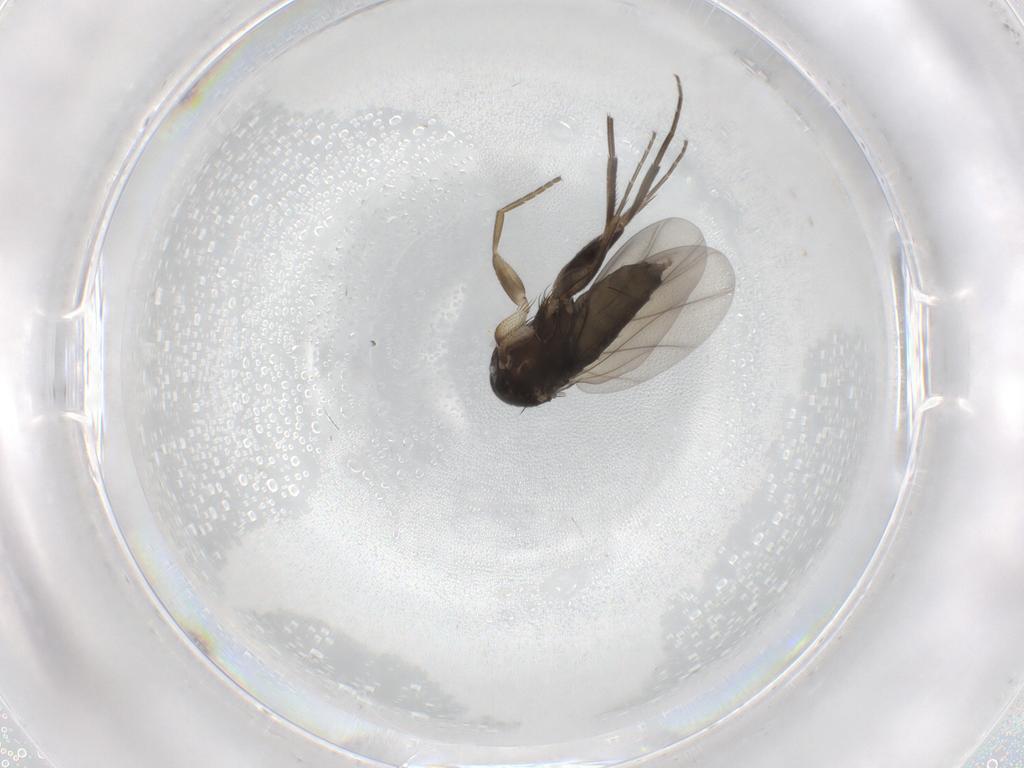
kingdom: Animalia
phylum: Arthropoda
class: Insecta
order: Diptera
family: Phoridae
